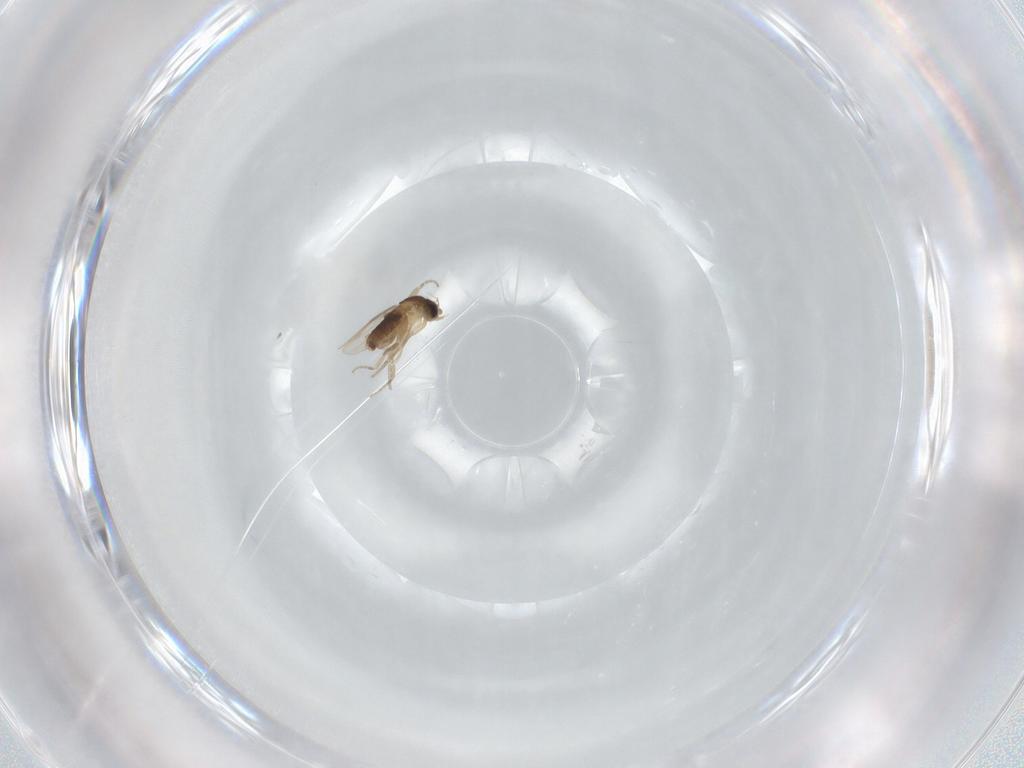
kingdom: Animalia
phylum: Arthropoda
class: Insecta
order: Diptera
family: Phoridae
